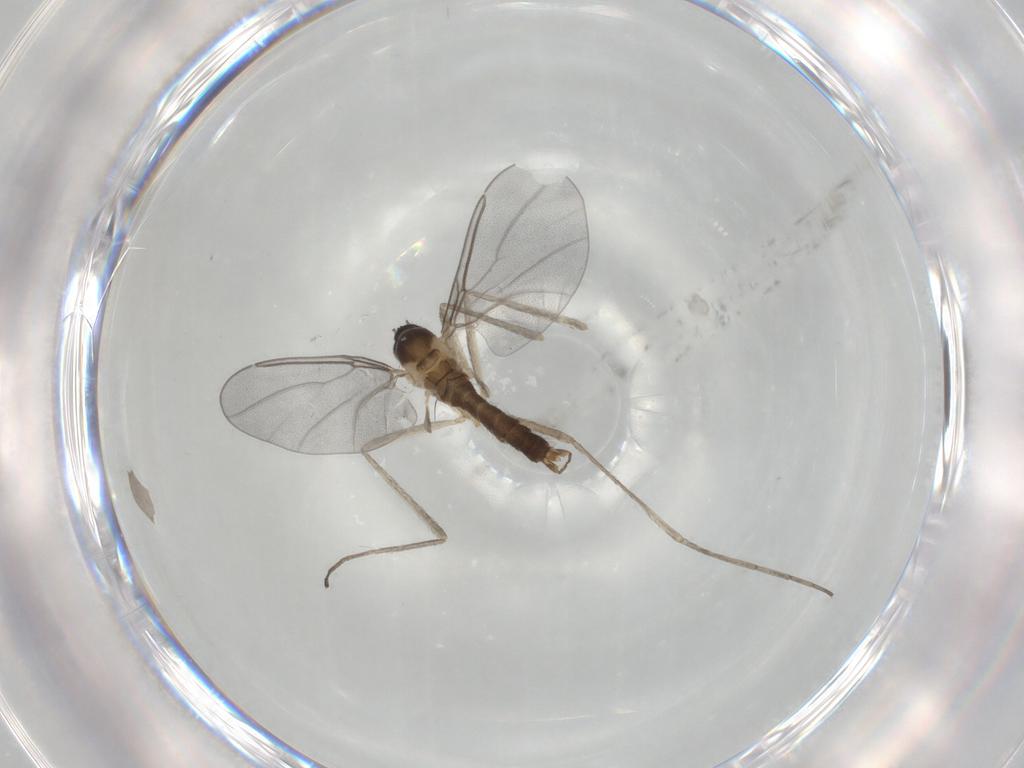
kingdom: Animalia
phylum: Arthropoda
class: Insecta
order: Diptera
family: Cecidomyiidae
